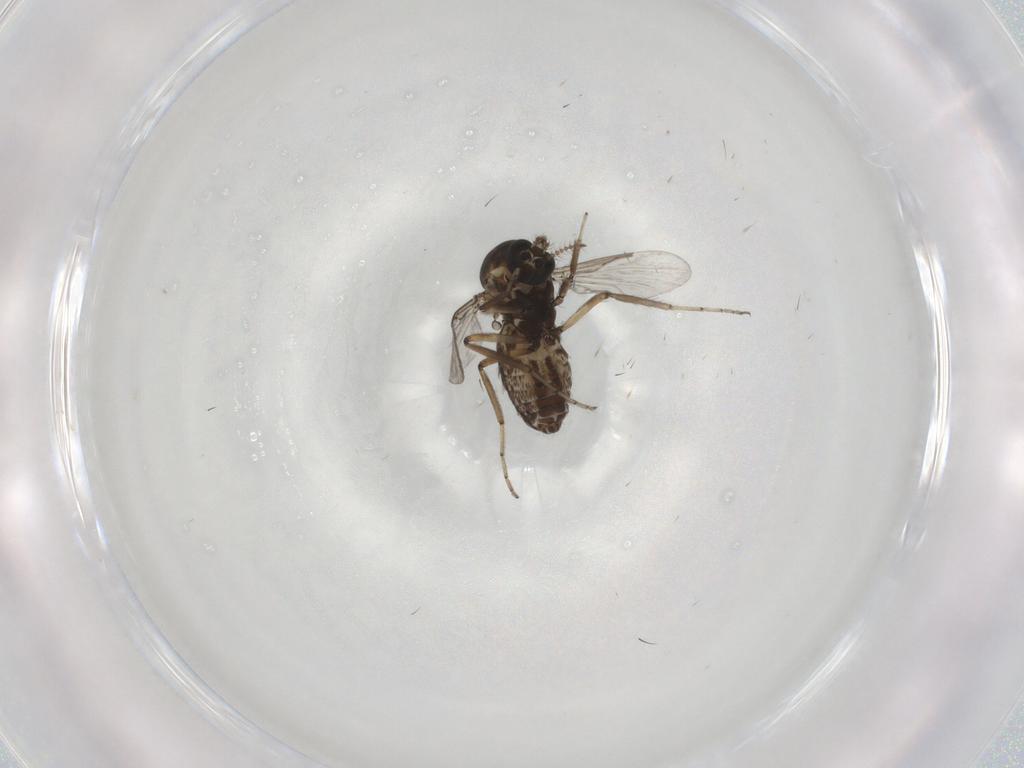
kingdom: Animalia
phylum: Arthropoda
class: Insecta
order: Diptera
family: Ceratopogonidae
